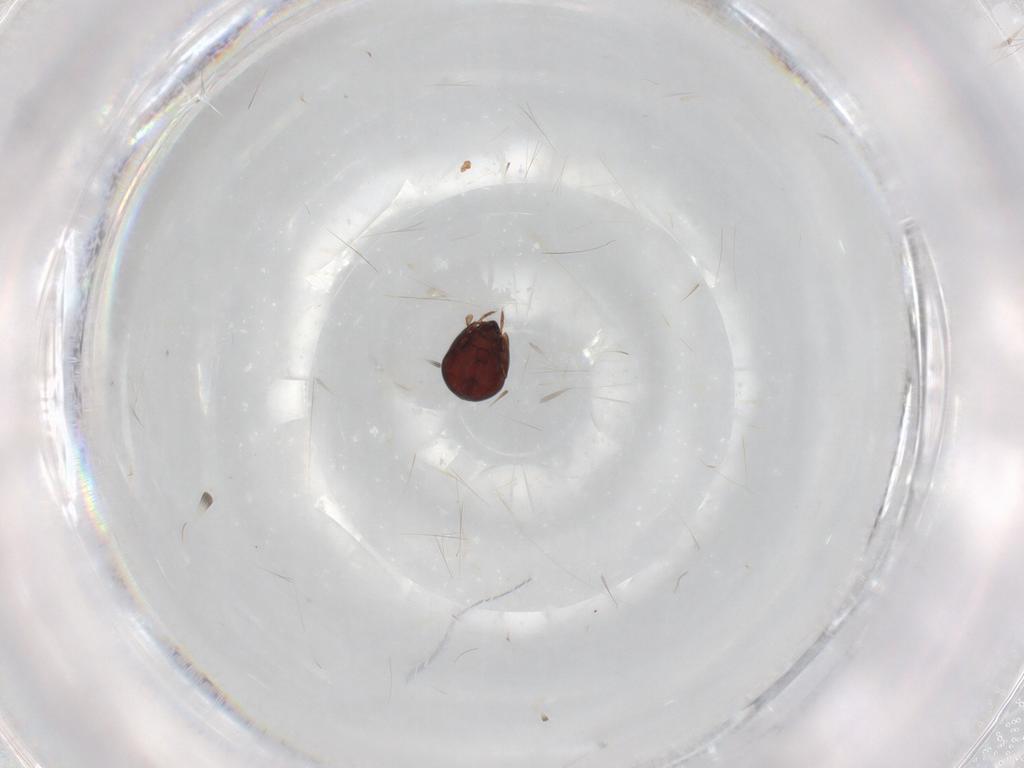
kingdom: Animalia
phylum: Arthropoda
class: Arachnida
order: Sarcoptiformes
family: Galumnidae
